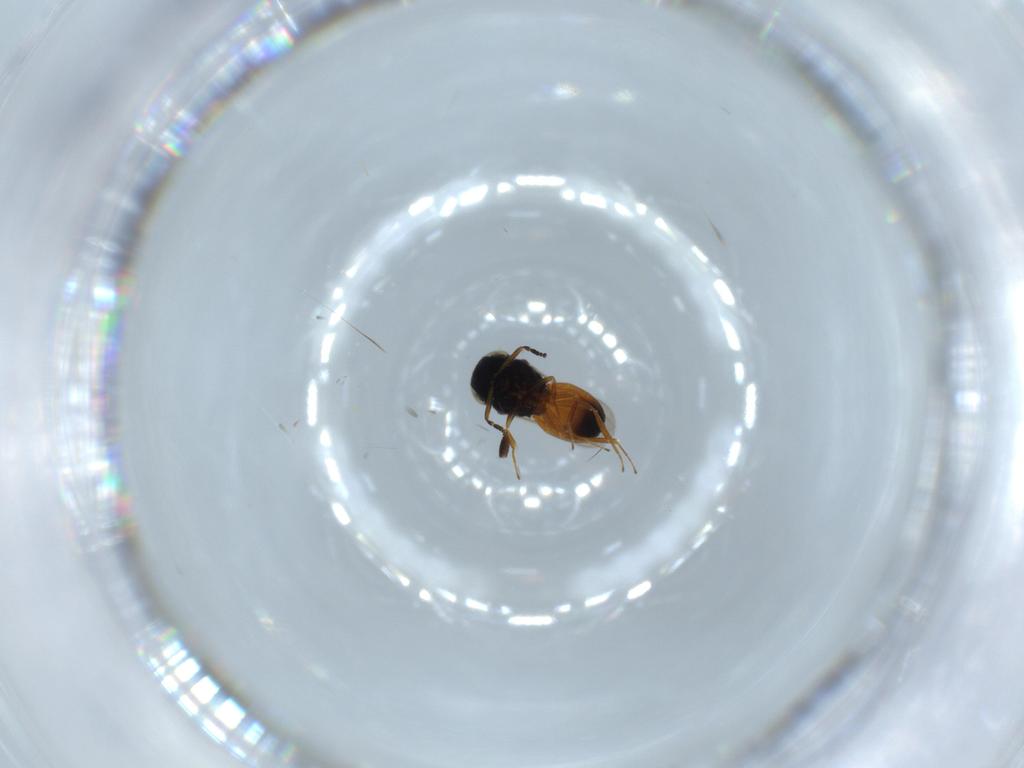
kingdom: Animalia
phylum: Arthropoda
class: Insecta
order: Hymenoptera
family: Scelionidae
